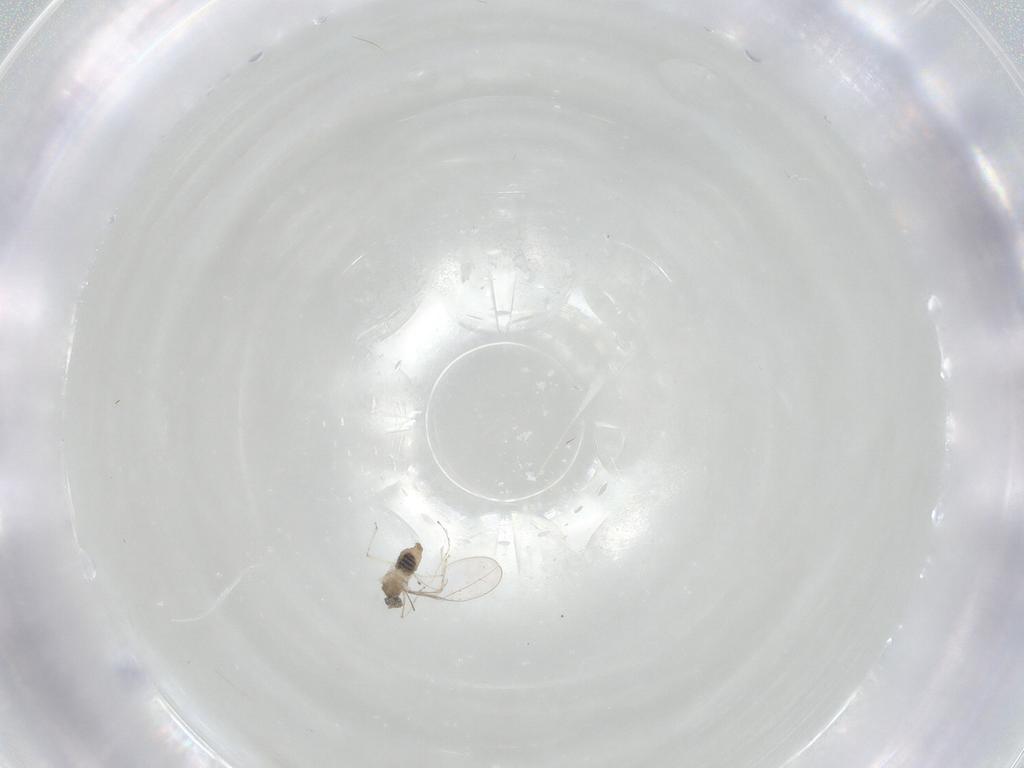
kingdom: Animalia
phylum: Arthropoda
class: Insecta
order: Diptera
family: Cecidomyiidae
